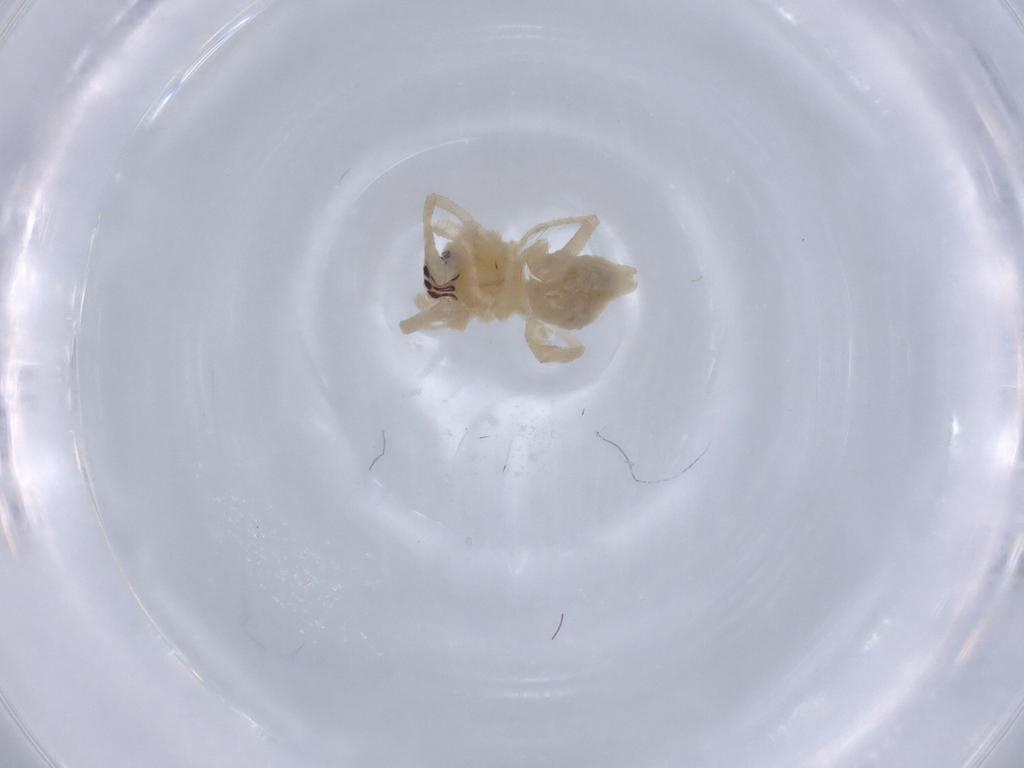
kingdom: Animalia
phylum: Arthropoda
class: Arachnida
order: Araneae
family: Cheiracanthiidae
